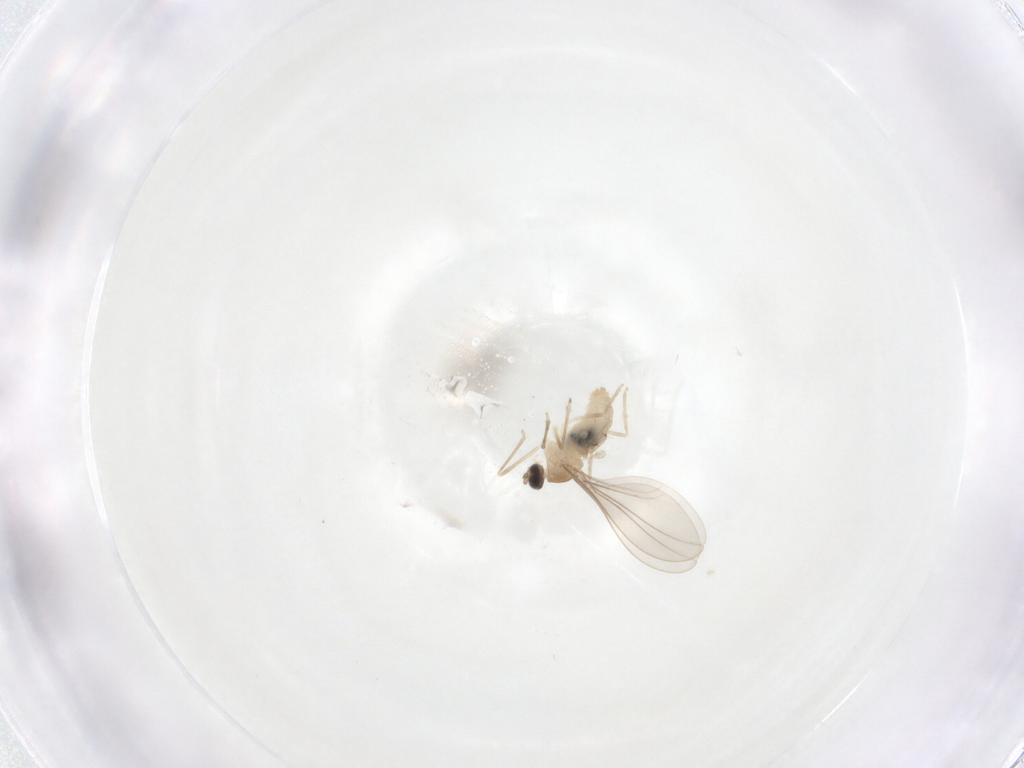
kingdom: Animalia
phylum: Arthropoda
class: Insecta
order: Diptera
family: Cecidomyiidae
